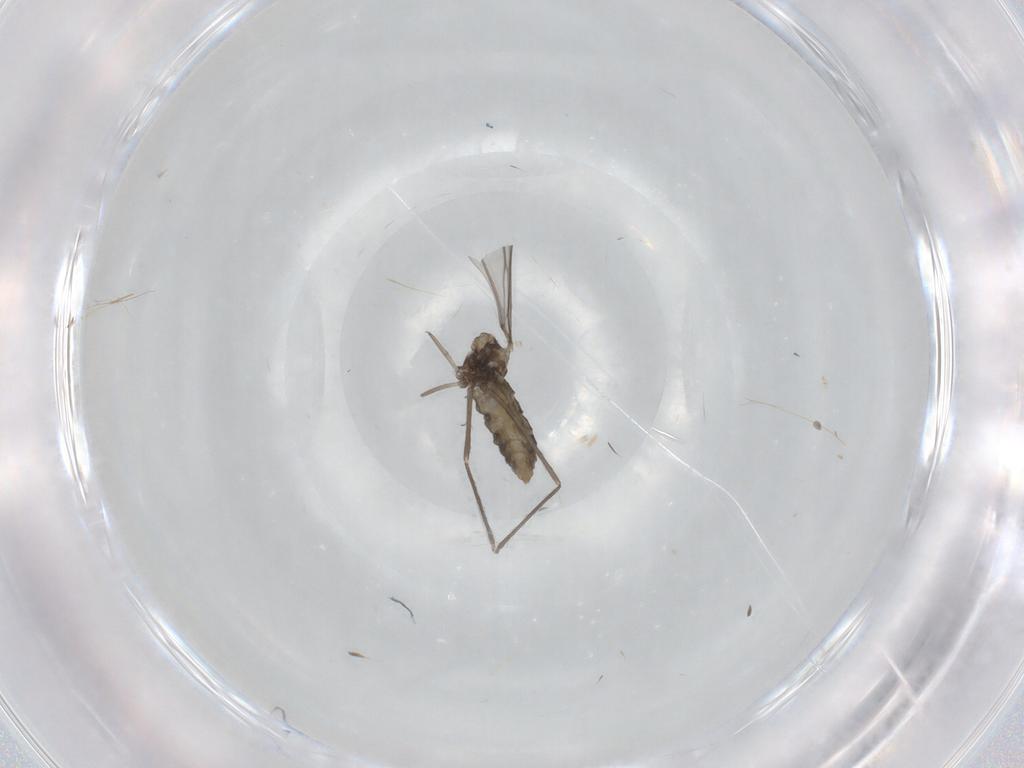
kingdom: Animalia
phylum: Arthropoda
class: Insecta
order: Diptera
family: Cecidomyiidae
